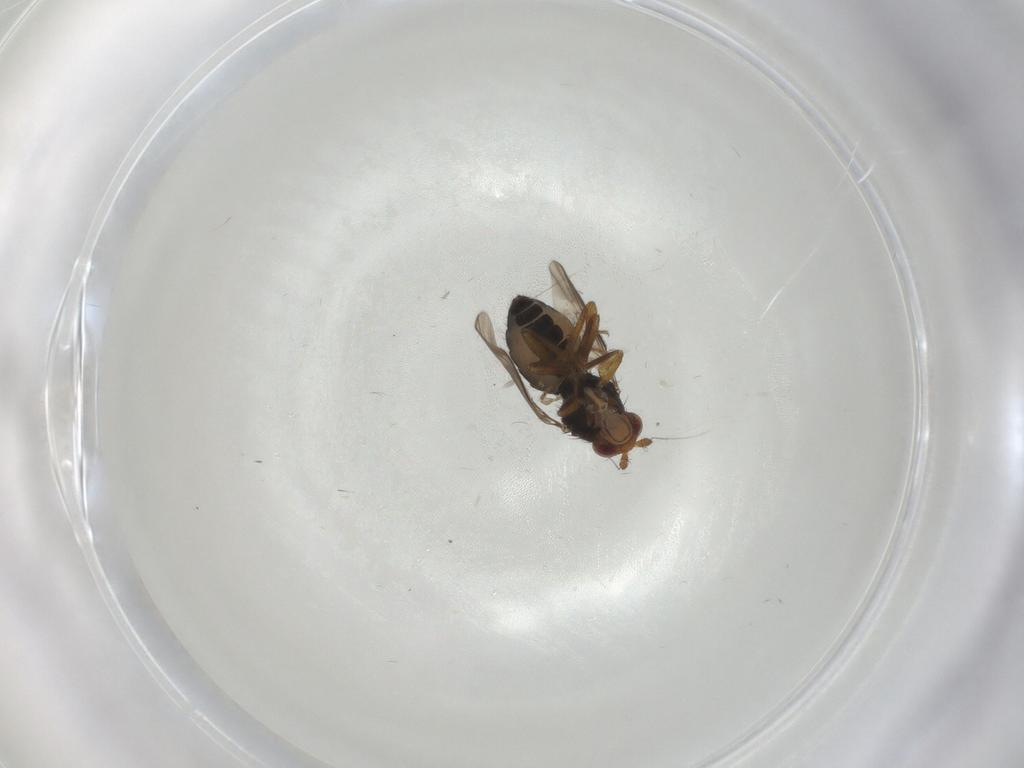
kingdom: Animalia
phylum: Arthropoda
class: Insecta
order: Diptera
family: Sphaeroceridae
